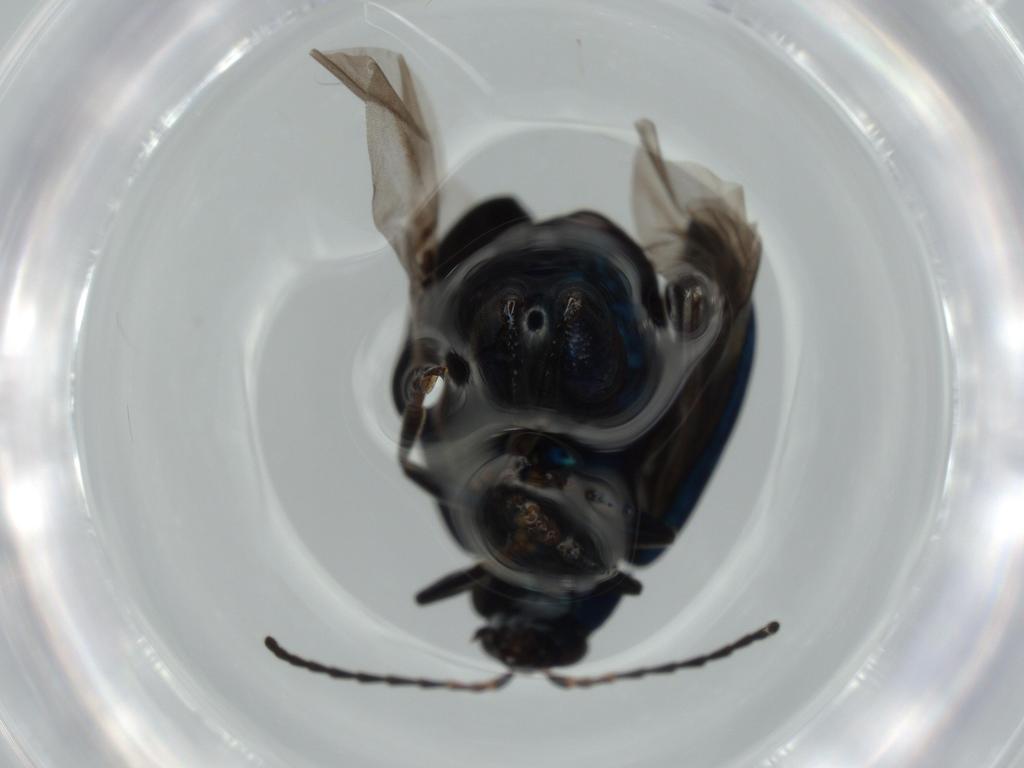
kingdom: Animalia
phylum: Arthropoda
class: Insecta
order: Coleoptera
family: Chrysomelidae
